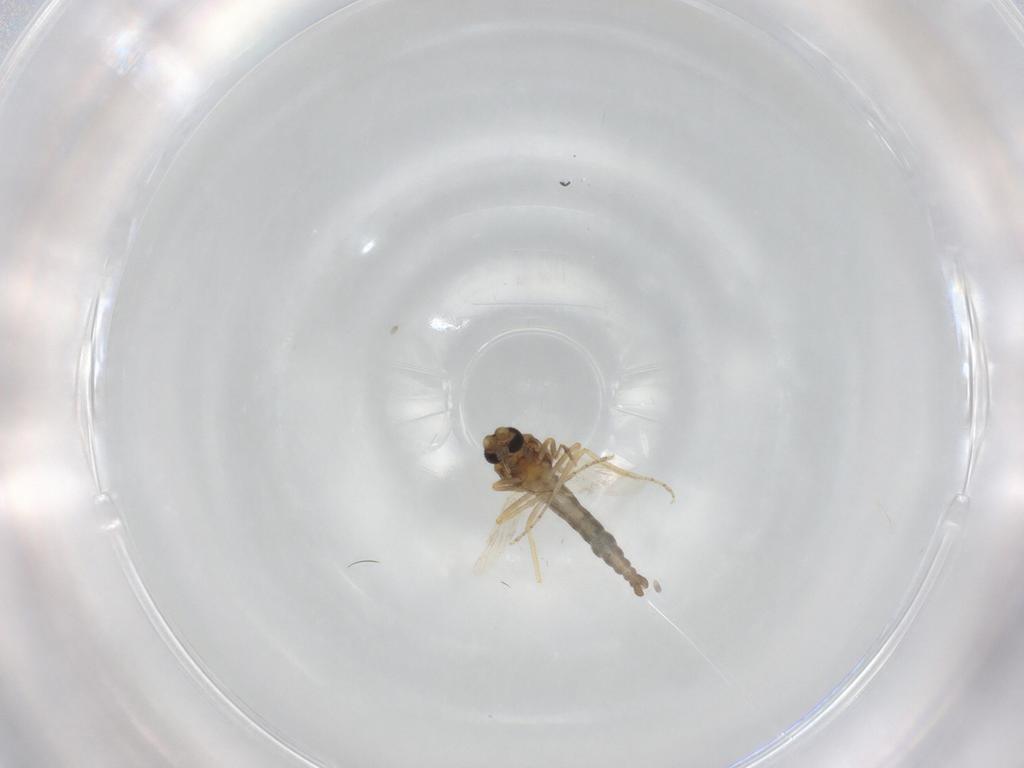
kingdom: Animalia
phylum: Arthropoda
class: Insecta
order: Diptera
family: Ceratopogonidae
